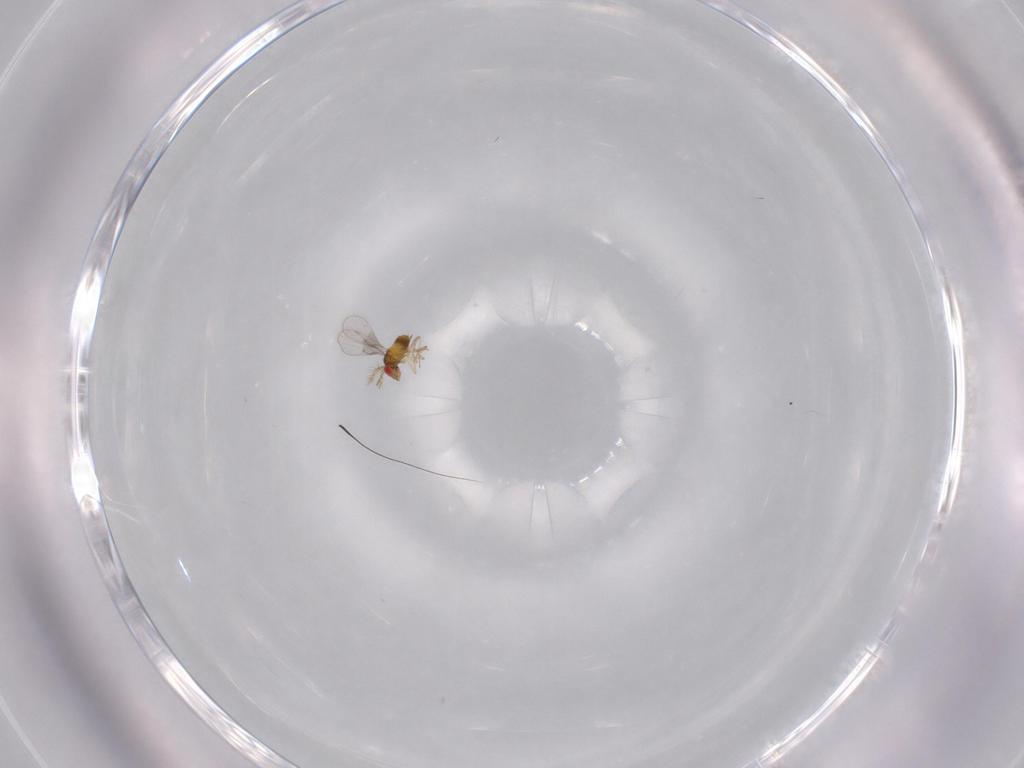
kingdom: Animalia
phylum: Arthropoda
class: Insecta
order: Hymenoptera
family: Trichogrammatidae
